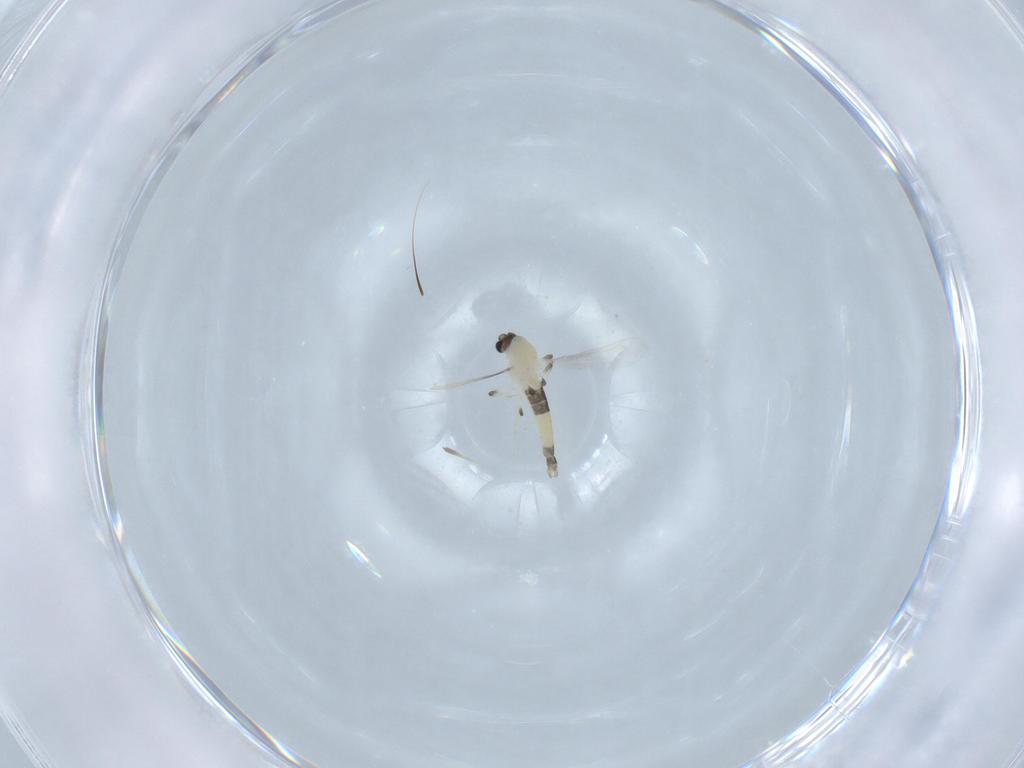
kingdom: Animalia
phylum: Arthropoda
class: Insecta
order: Diptera
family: Chironomidae
